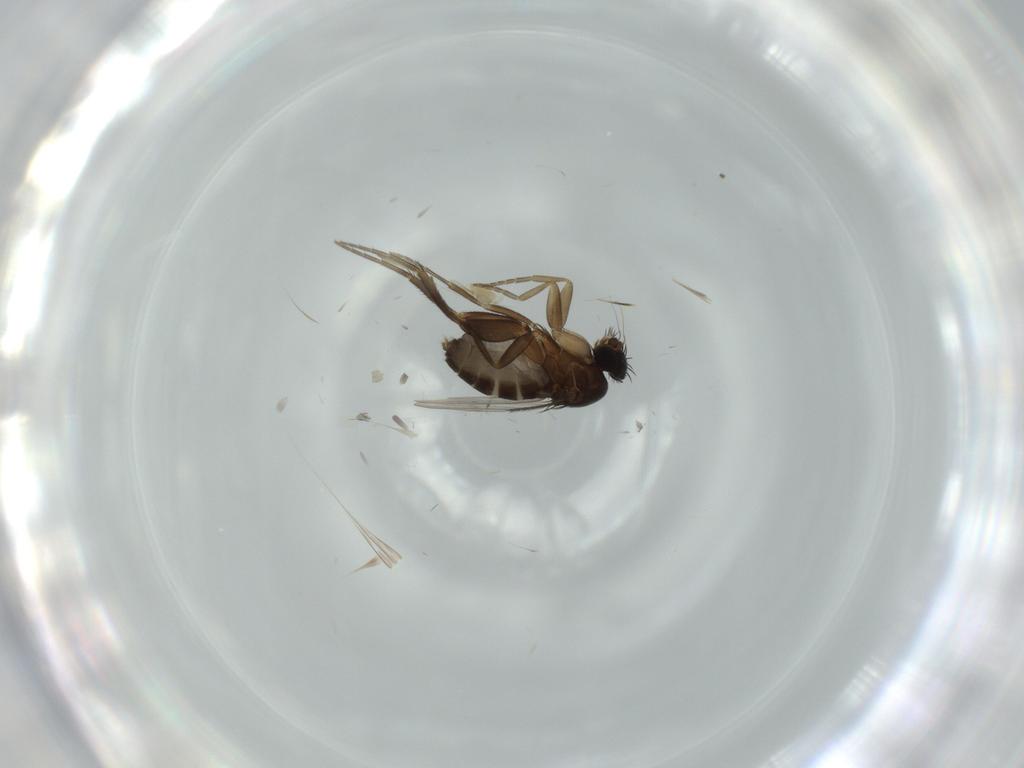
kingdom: Animalia
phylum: Arthropoda
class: Insecta
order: Diptera
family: Phoridae
